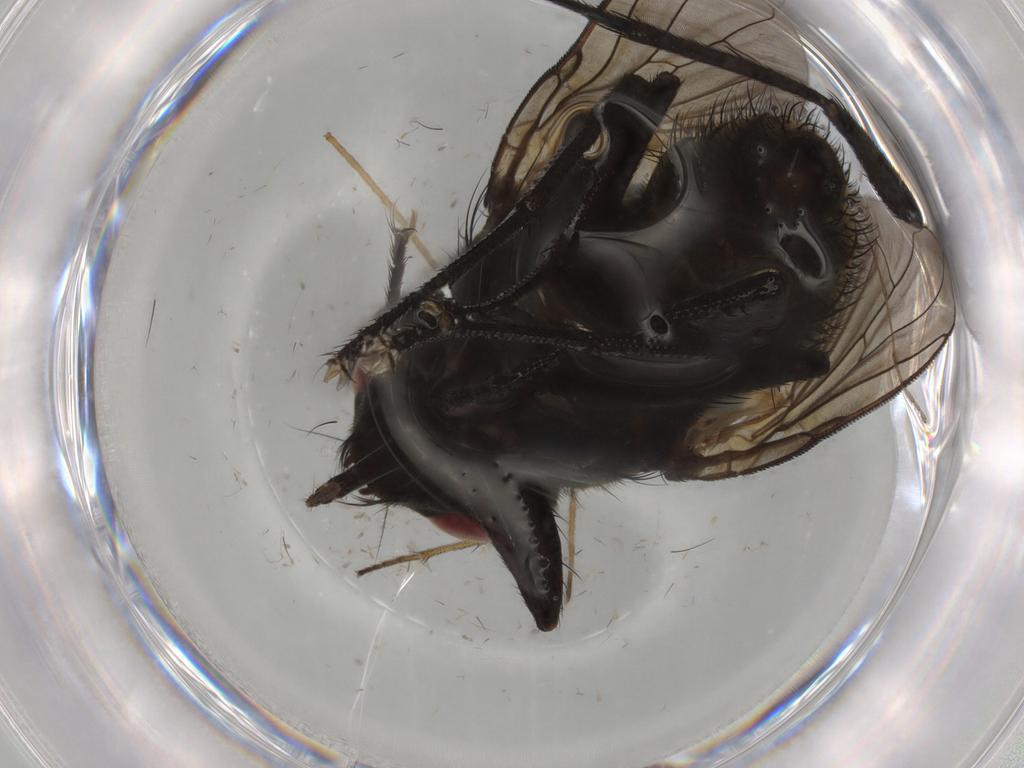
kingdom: Animalia
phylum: Arthropoda
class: Insecta
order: Diptera
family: Muscidae
